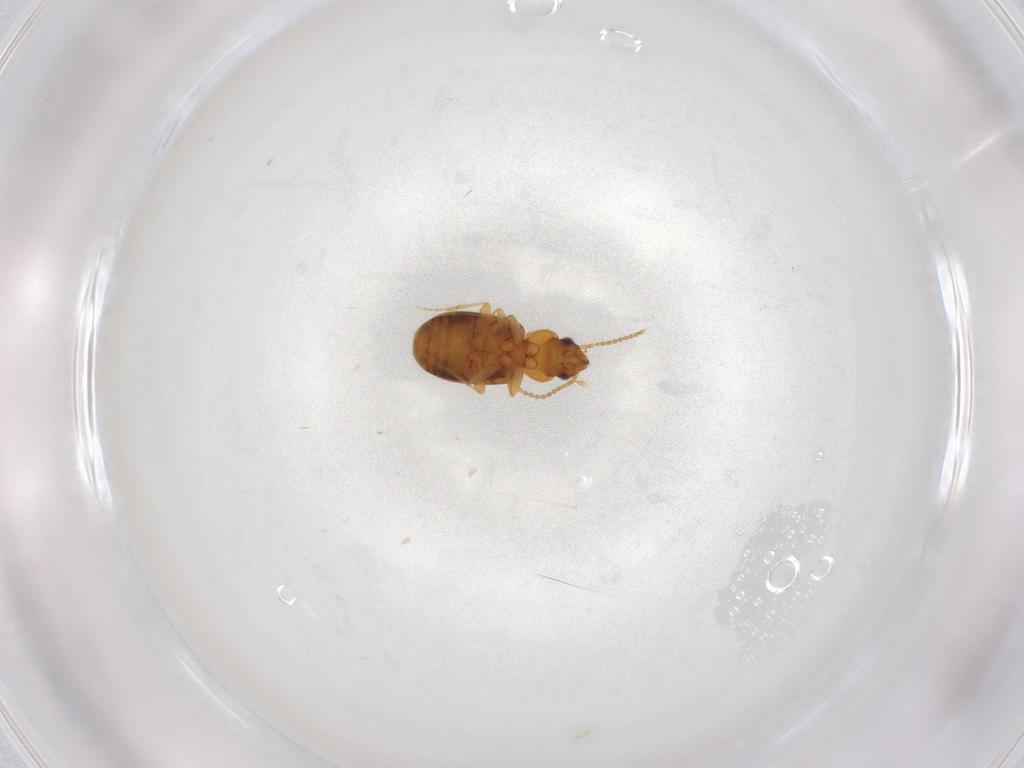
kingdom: Animalia
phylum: Arthropoda
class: Insecta
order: Coleoptera
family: Carabidae
